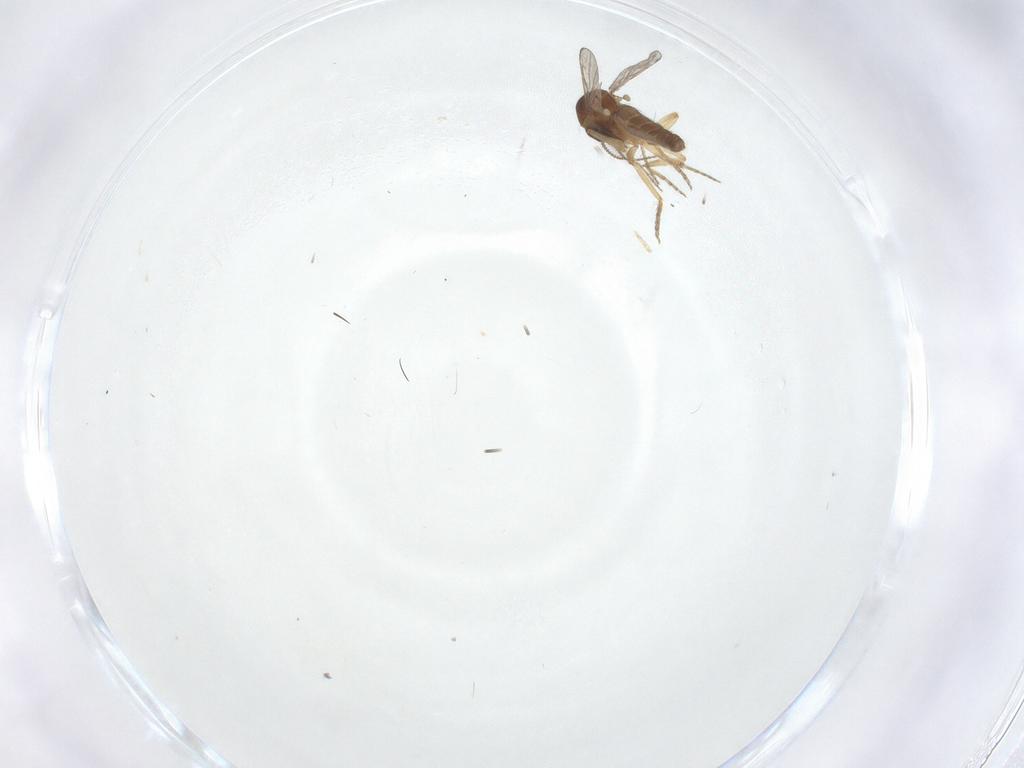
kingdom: Animalia
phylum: Arthropoda
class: Insecta
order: Diptera
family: Ceratopogonidae
